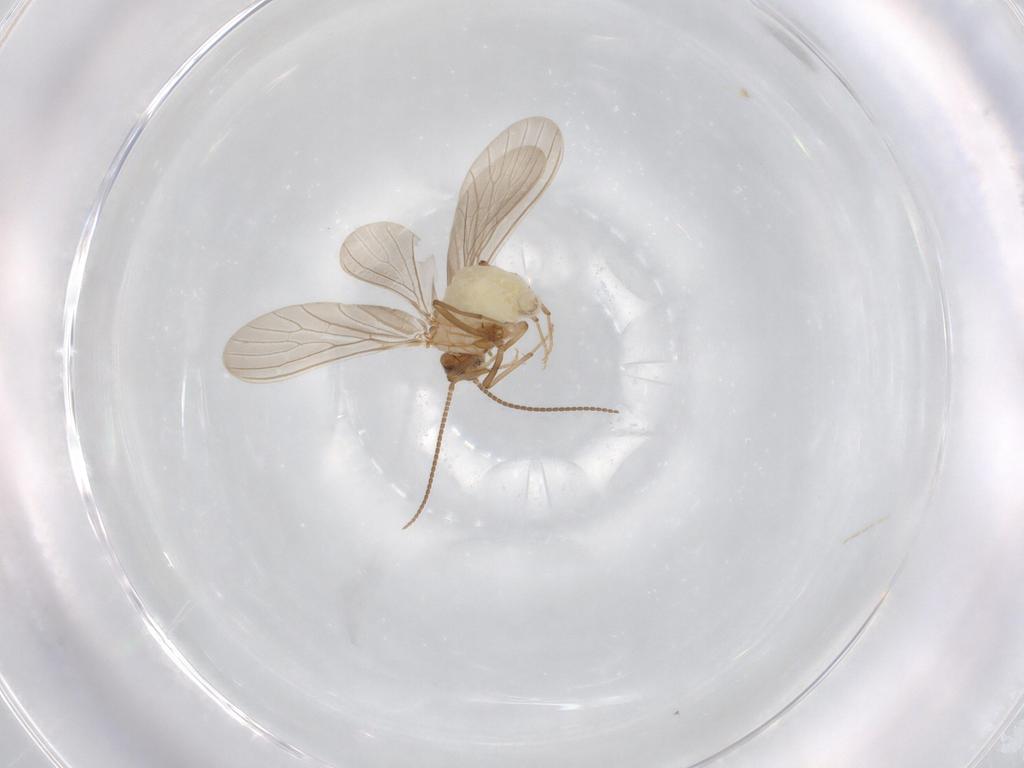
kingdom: Animalia
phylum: Arthropoda
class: Insecta
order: Neuroptera
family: Coniopterygidae
